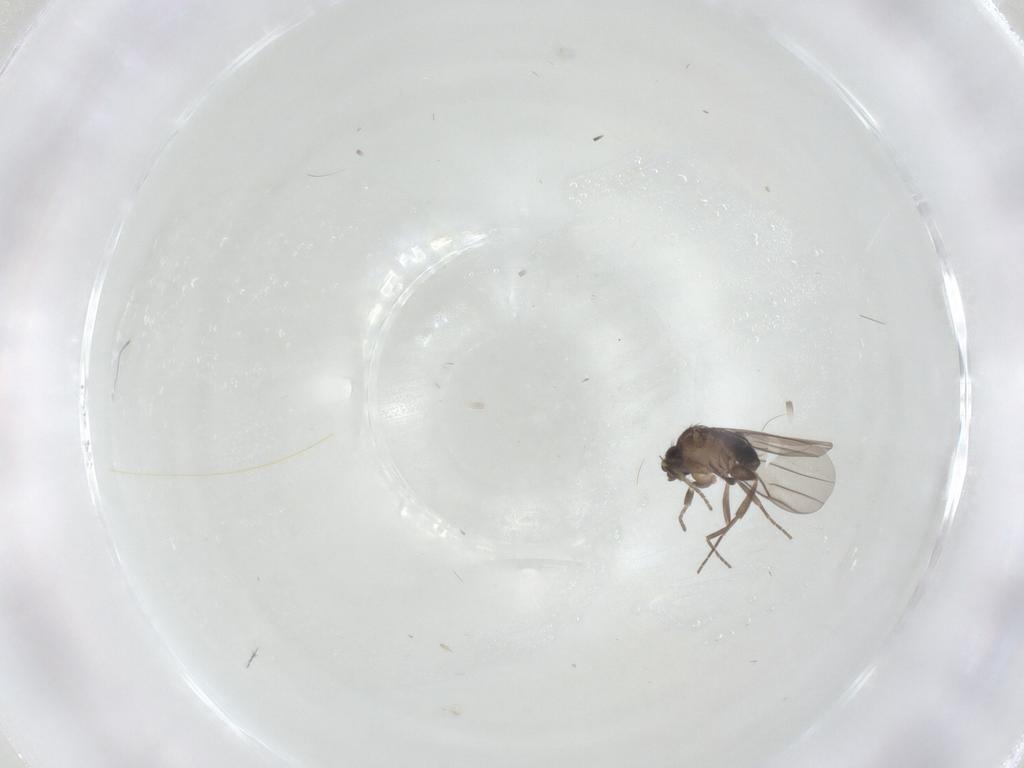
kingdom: Animalia
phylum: Arthropoda
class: Insecta
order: Diptera
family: Phoridae
